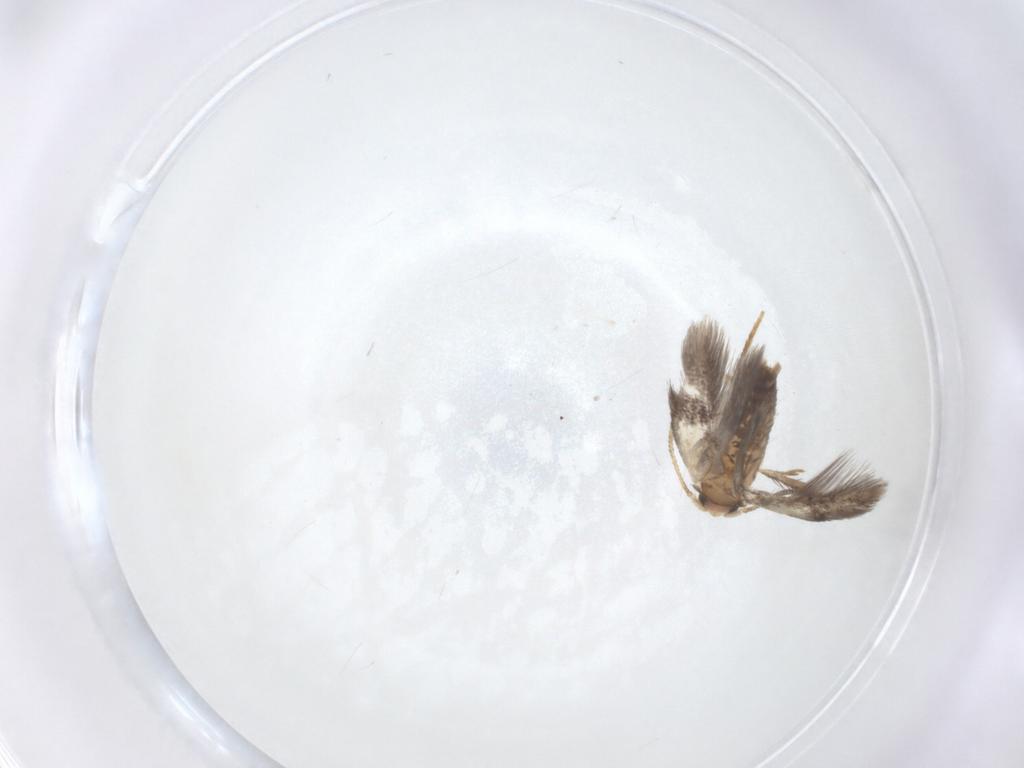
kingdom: Animalia
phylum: Arthropoda
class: Insecta
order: Lepidoptera
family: Nepticulidae
